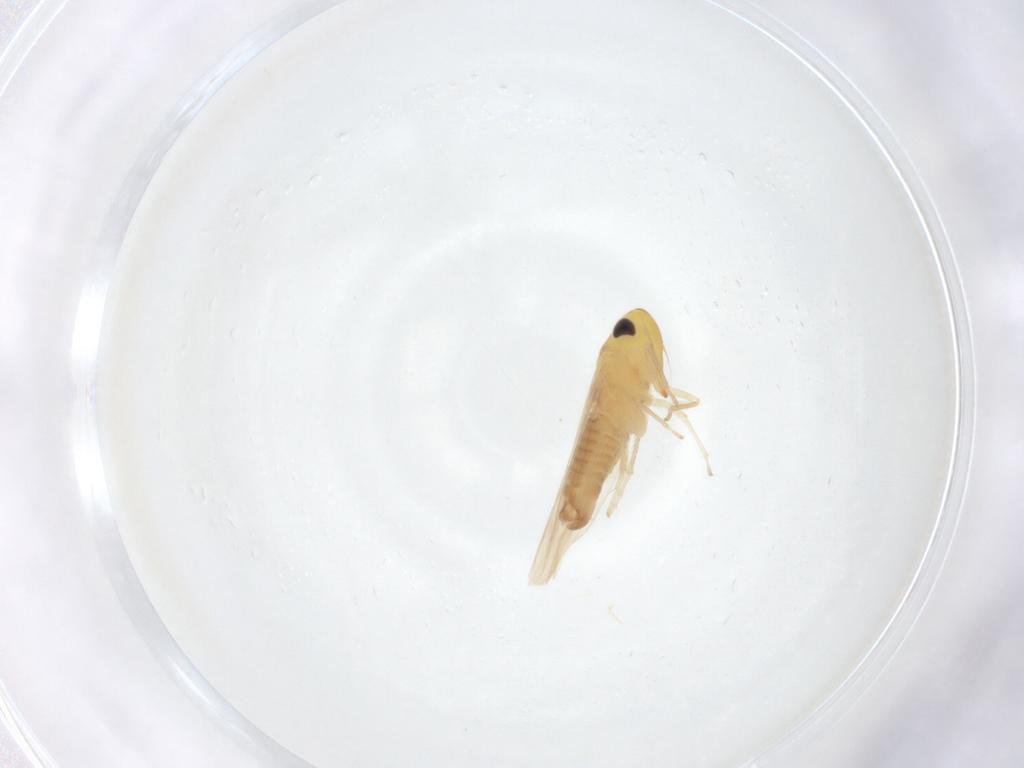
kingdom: Animalia
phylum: Arthropoda
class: Insecta
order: Hemiptera
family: Cicadellidae
